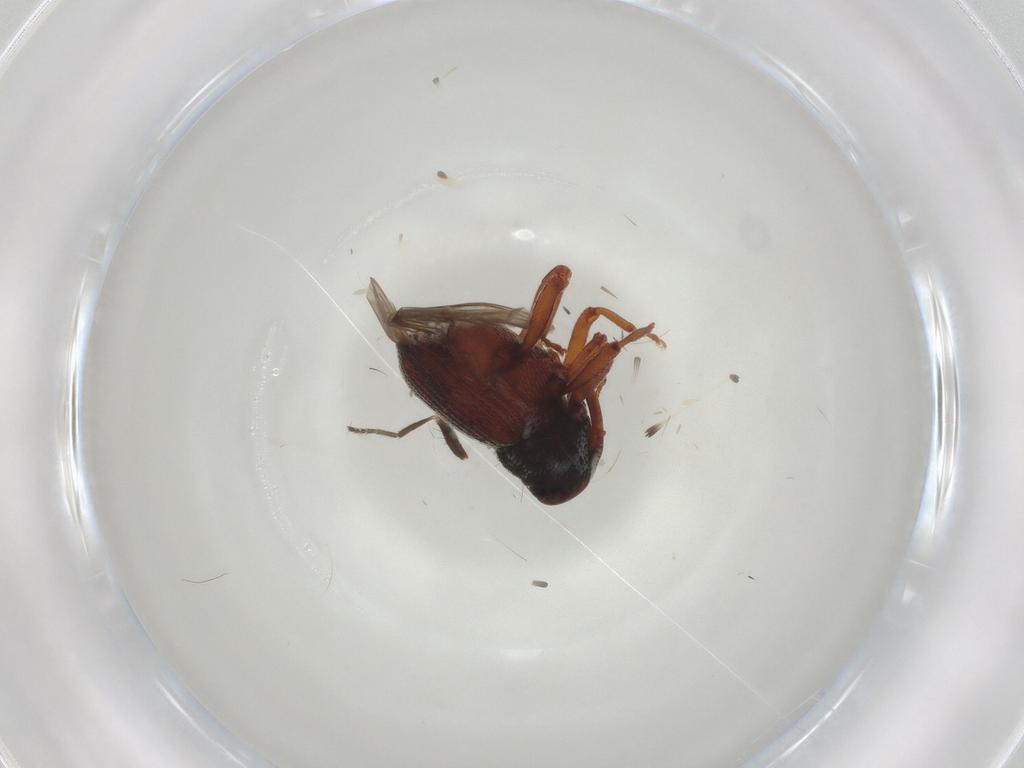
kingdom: Animalia
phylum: Arthropoda
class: Insecta
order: Coleoptera
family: Curculionidae
